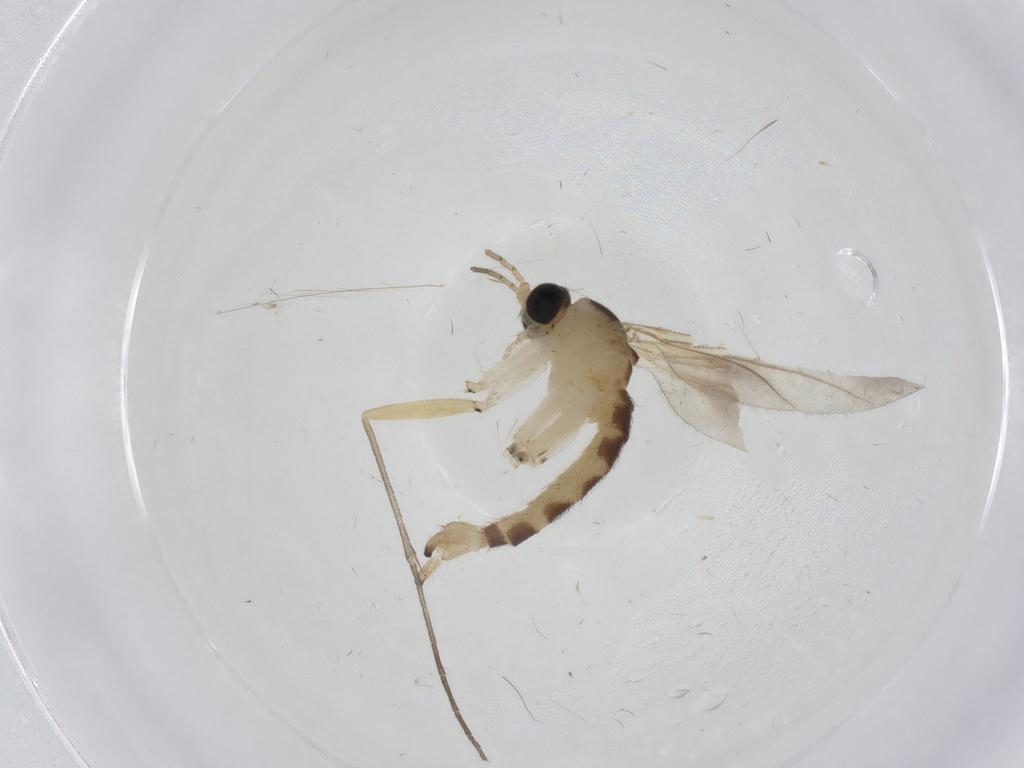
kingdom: Animalia
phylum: Arthropoda
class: Insecta
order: Diptera
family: Sciaridae
